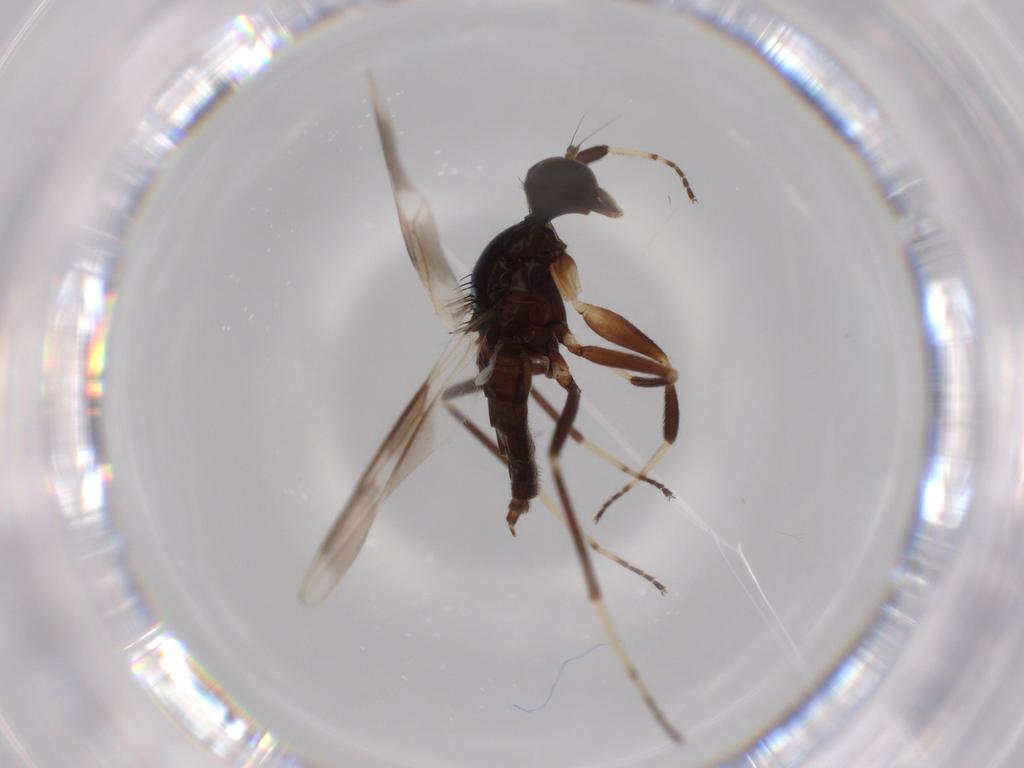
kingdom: Animalia
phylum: Arthropoda
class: Insecta
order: Diptera
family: Hybotidae
